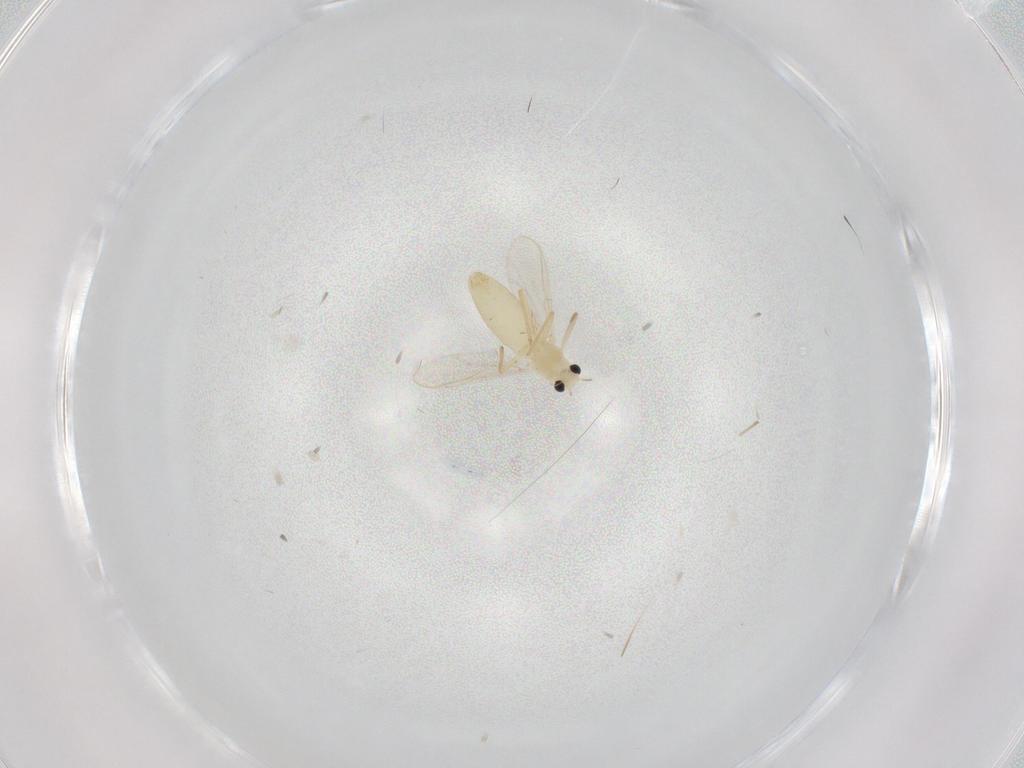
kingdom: Animalia
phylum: Arthropoda
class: Insecta
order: Diptera
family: Chironomidae
